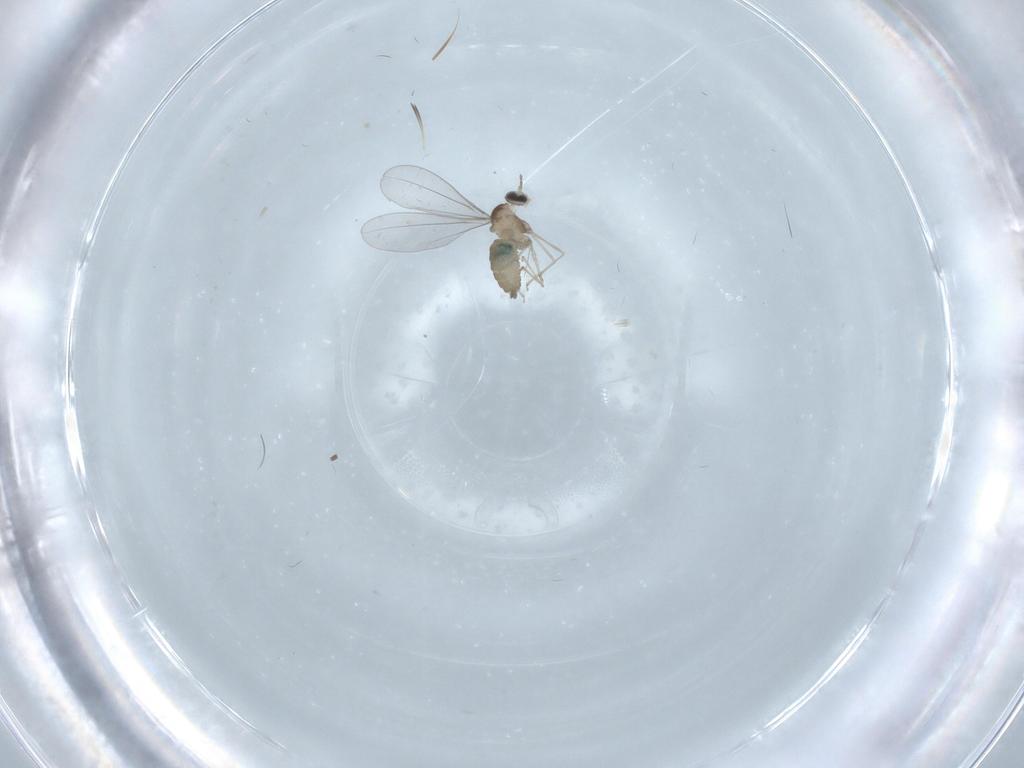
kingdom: Animalia
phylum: Arthropoda
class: Insecta
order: Diptera
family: Cecidomyiidae
